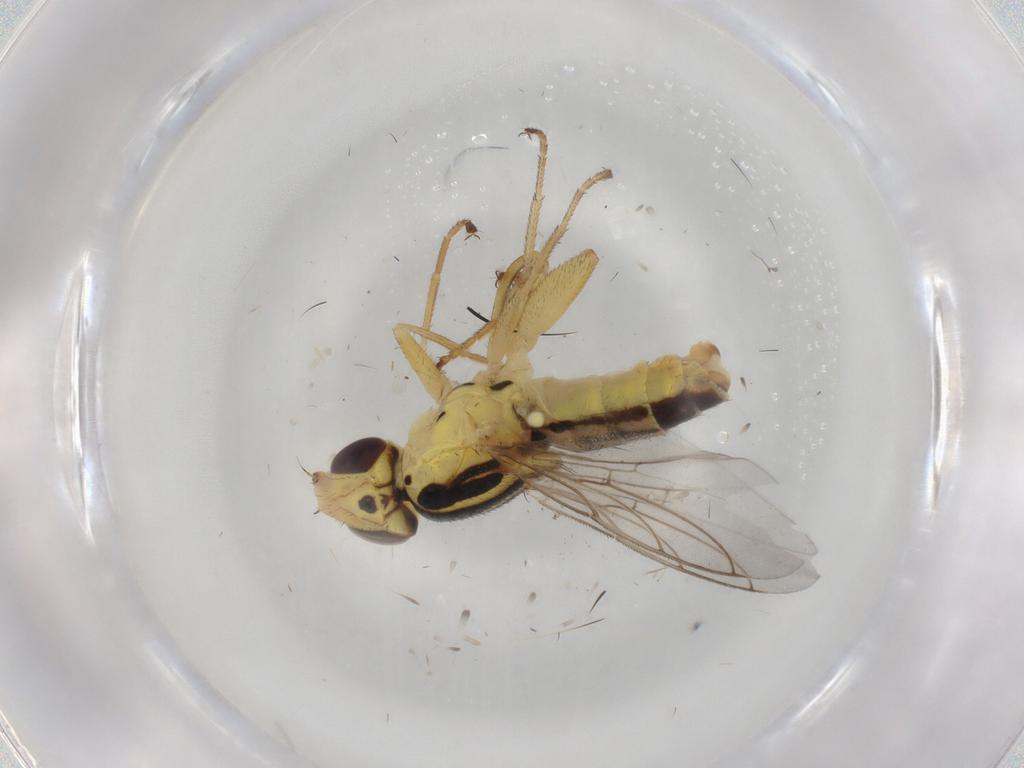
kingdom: Animalia
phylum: Arthropoda
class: Insecta
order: Diptera
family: Chloropidae
